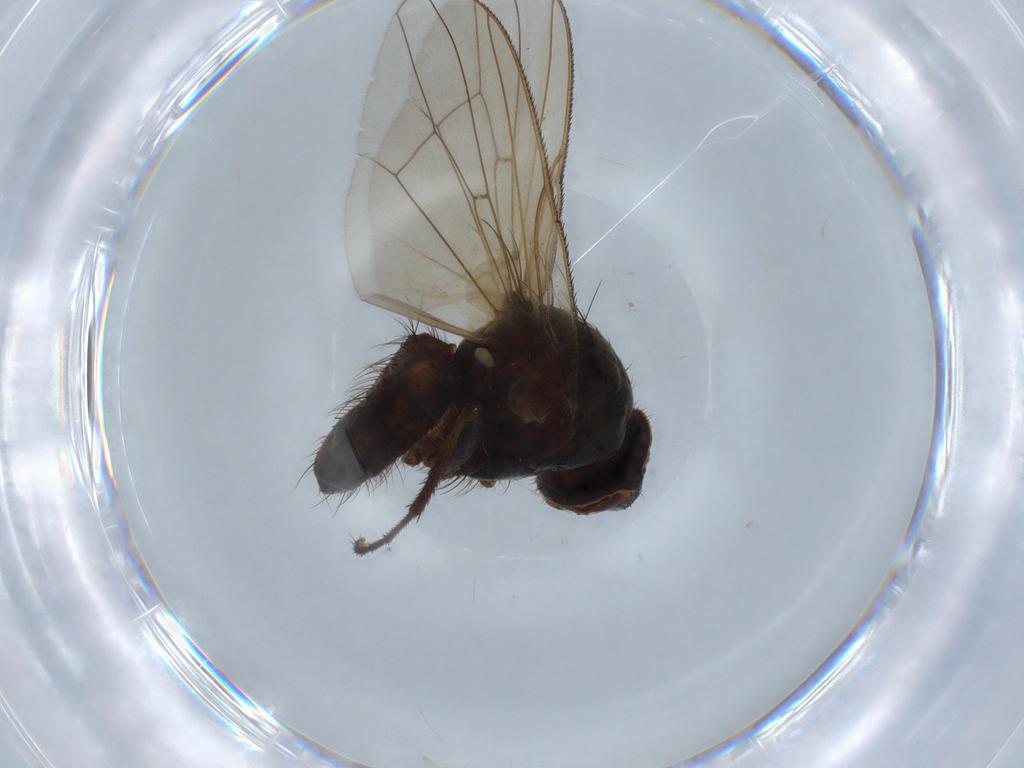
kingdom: Animalia
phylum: Arthropoda
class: Insecta
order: Diptera
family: Anthomyiidae
